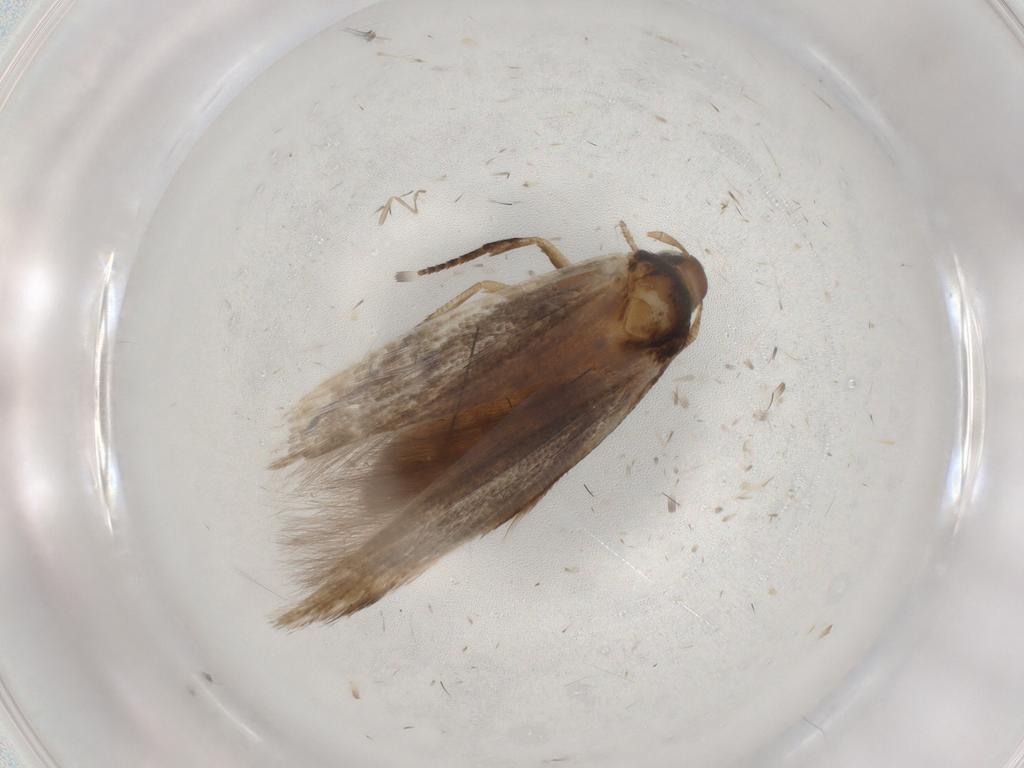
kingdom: Animalia
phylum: Arthropoda
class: Insecta
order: Lepidoptera
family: Cosmopterigidae
